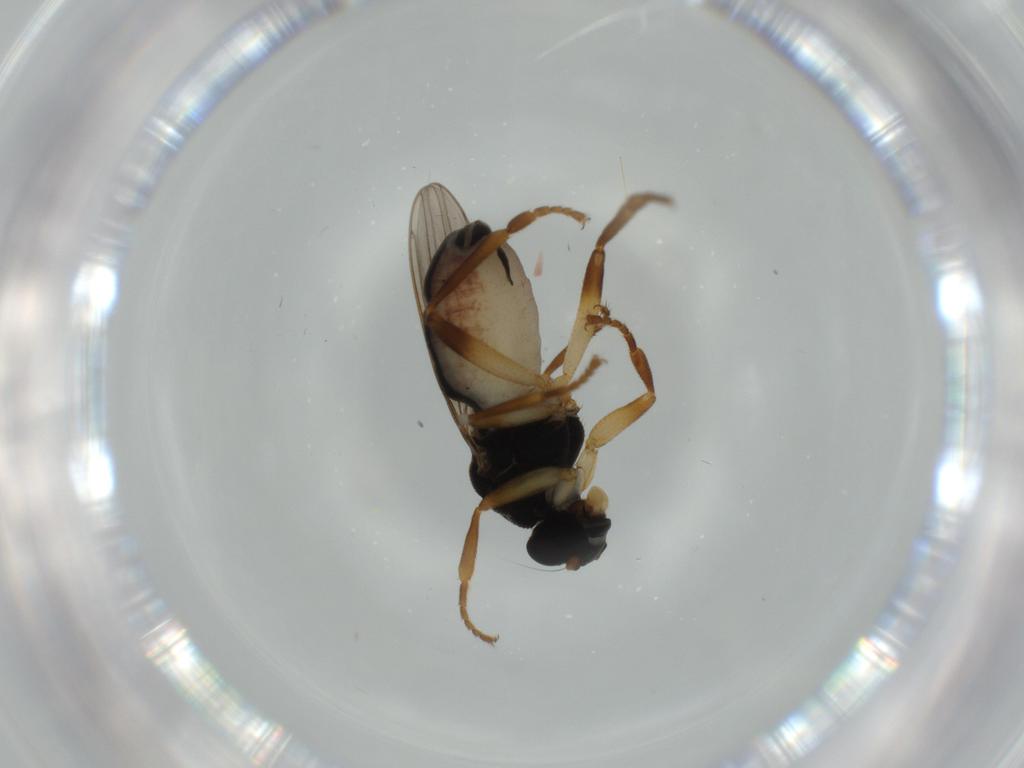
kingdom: Animalia
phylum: Arthropoda
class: Insecta
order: Diptera
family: Sphaeroceridae
